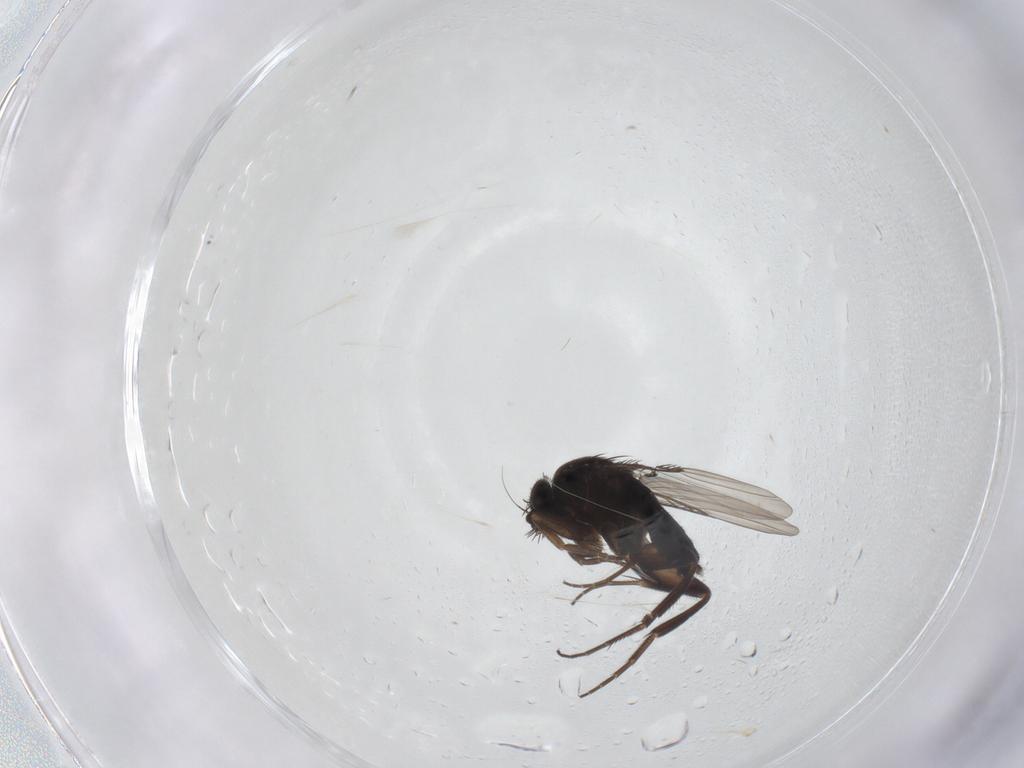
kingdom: Animalia
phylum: Arthropoda
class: Insecta
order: Diptera
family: Phoridae
